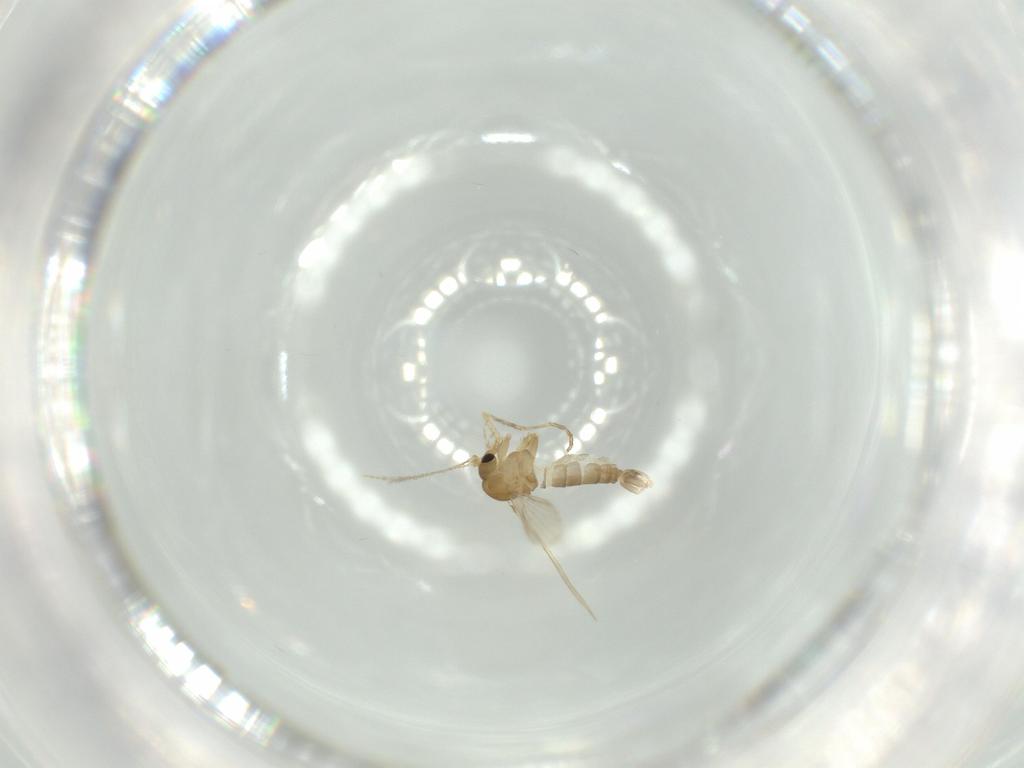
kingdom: Animalia
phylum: Arthropoda
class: Insecta
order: Diptera
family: Psychodidae
